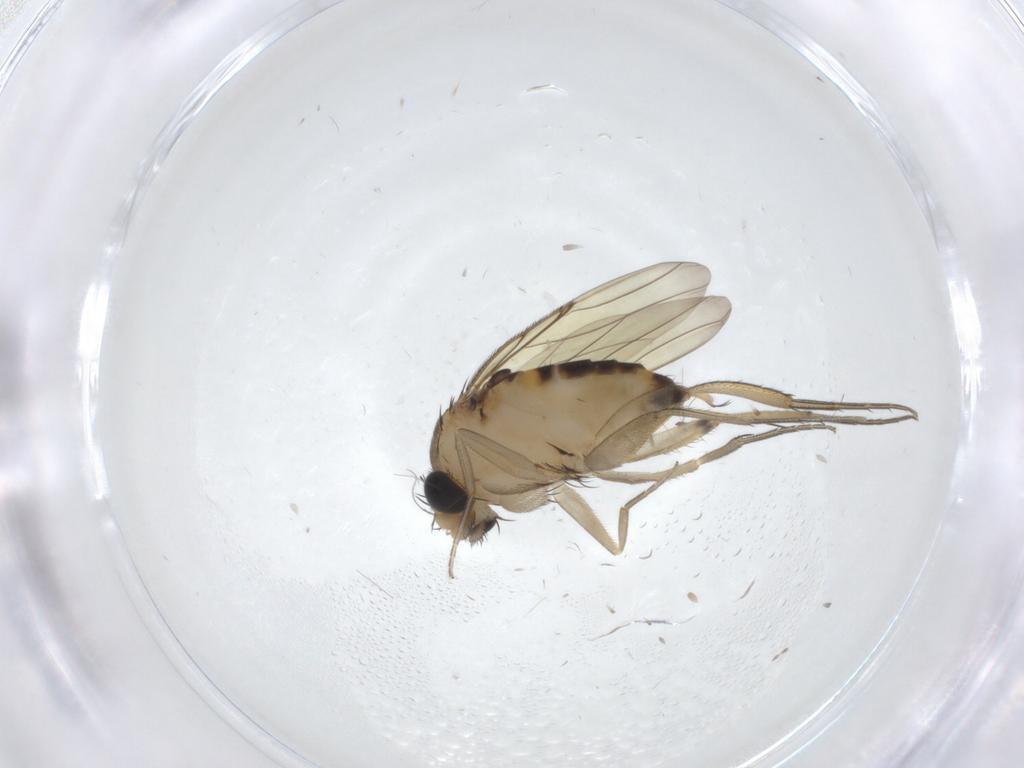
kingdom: Animalia
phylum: Arthropoda
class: Insecta
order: Diptera
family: Phoridae
